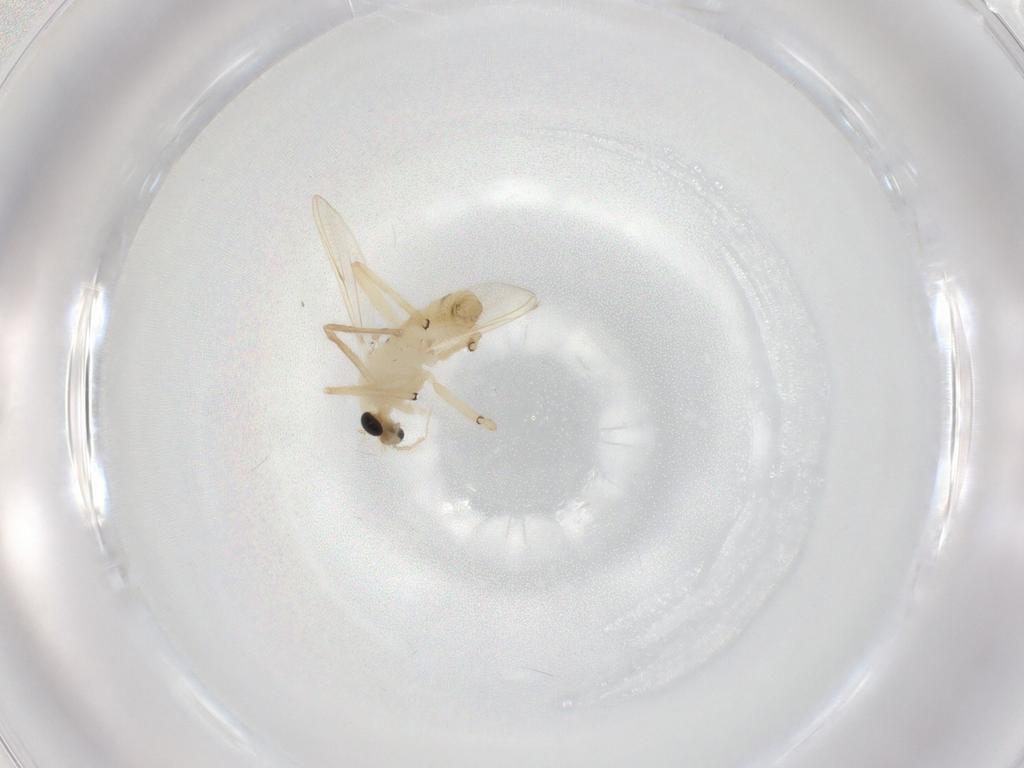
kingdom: Animalia
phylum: Arthropoda
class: Insecta
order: Diptera
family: Chironomidae
